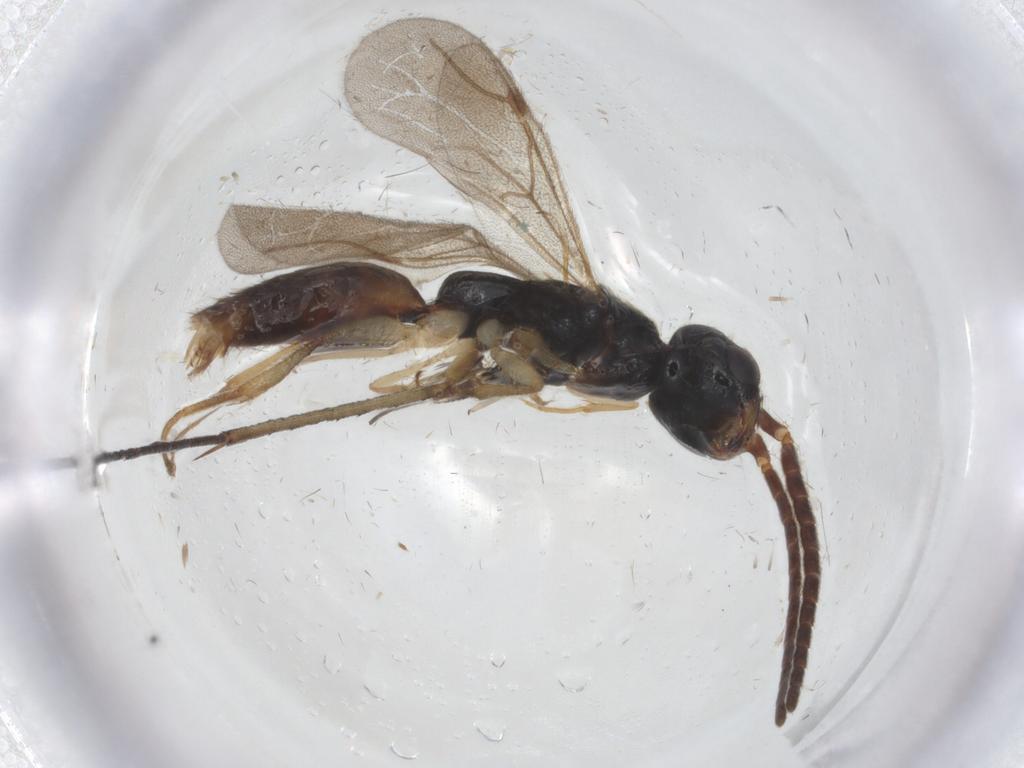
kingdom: Animalia
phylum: Arthropoda
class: Insecta
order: Hymenoptera
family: Bethylidae
